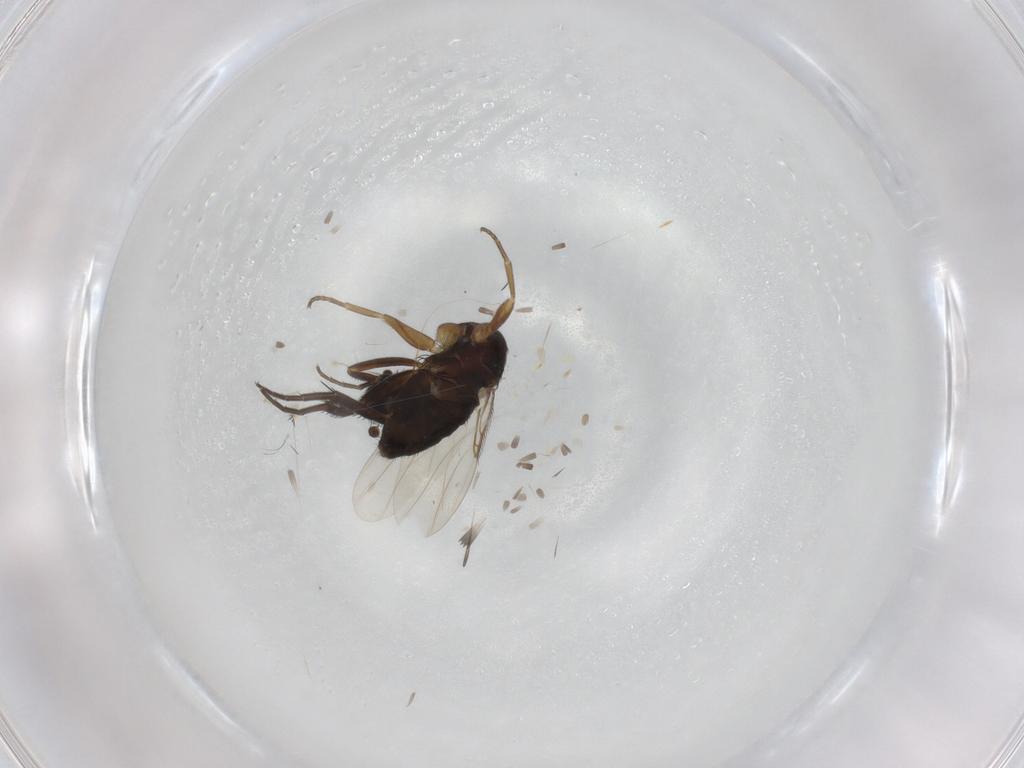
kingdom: Animalia
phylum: Arthropoda
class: Insecta
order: Diptera
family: Phoridae
